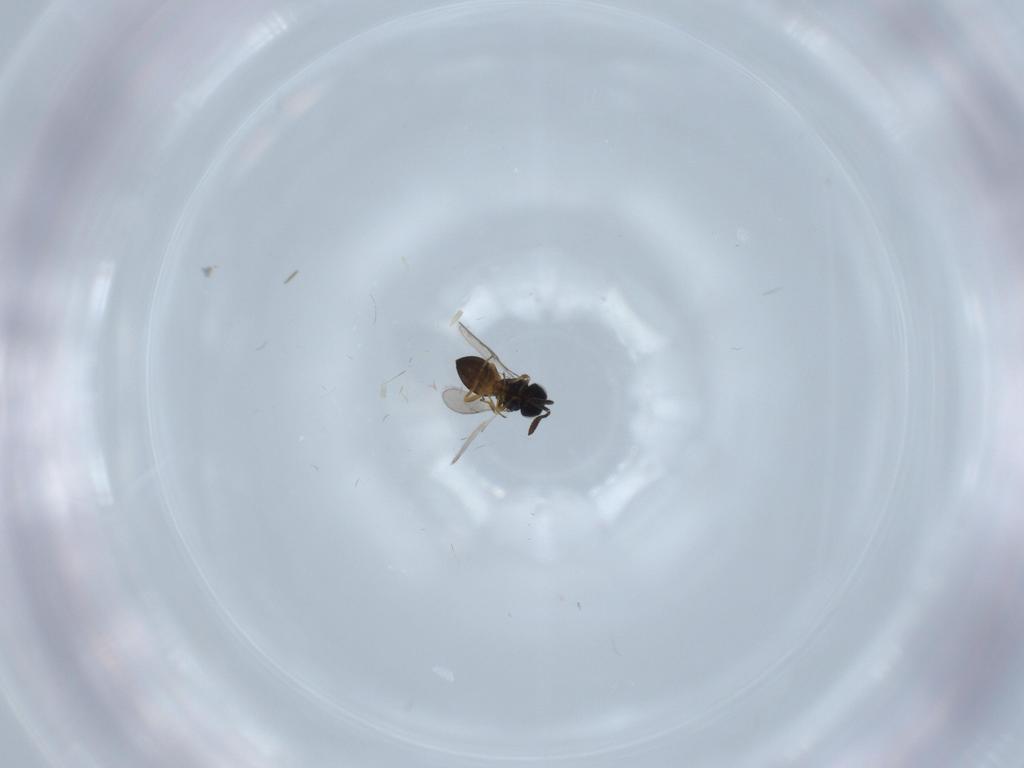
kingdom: Animalia
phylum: Arthropoda
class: Insecta
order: Hymenoptera
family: Scelionidae
